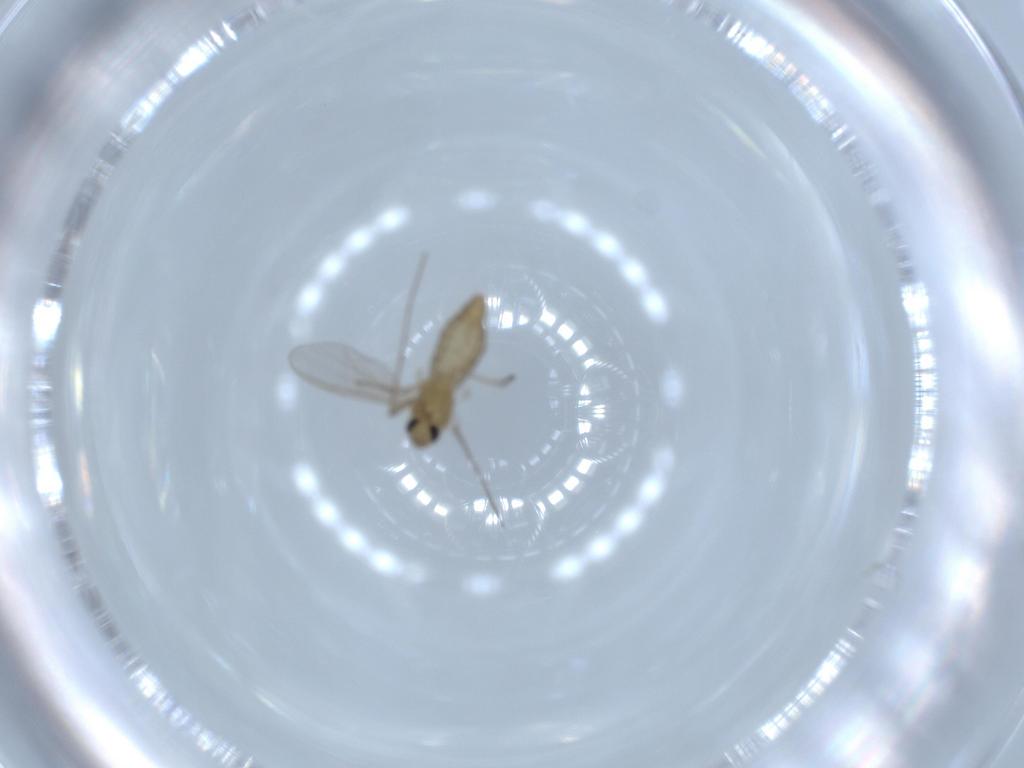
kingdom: Animalia
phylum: Arthropoda
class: Insecta
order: Diptera
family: Chironomidae
